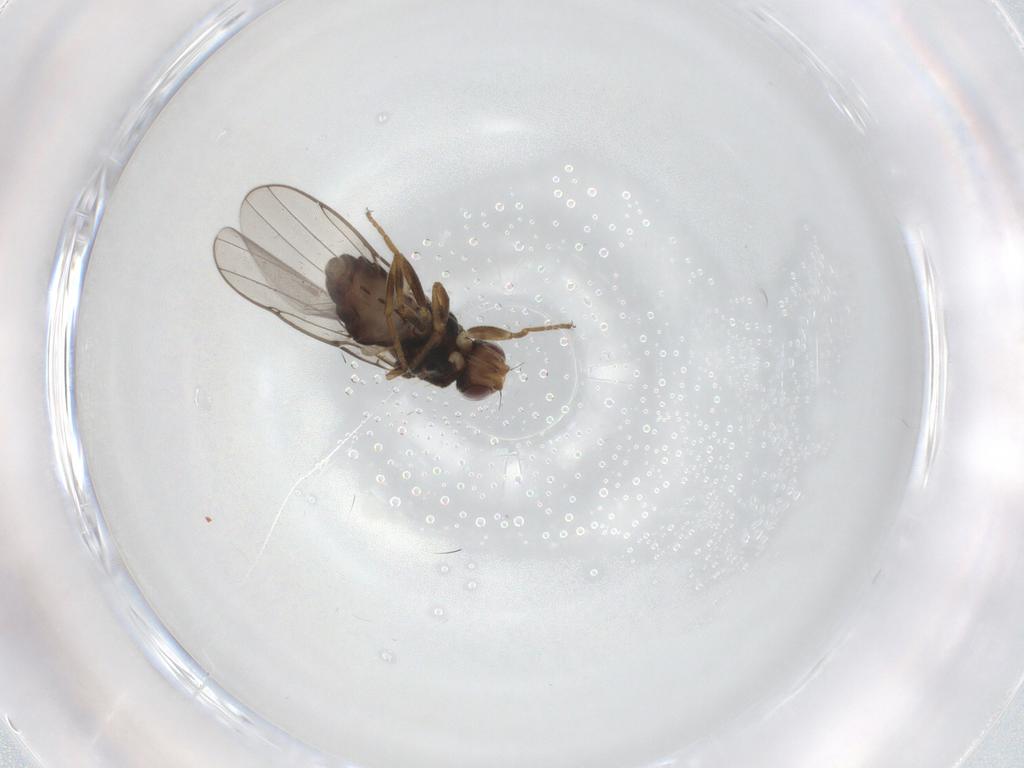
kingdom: Animalia
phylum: Arthropoda
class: Insecta
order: Diptera
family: Chloropidae
